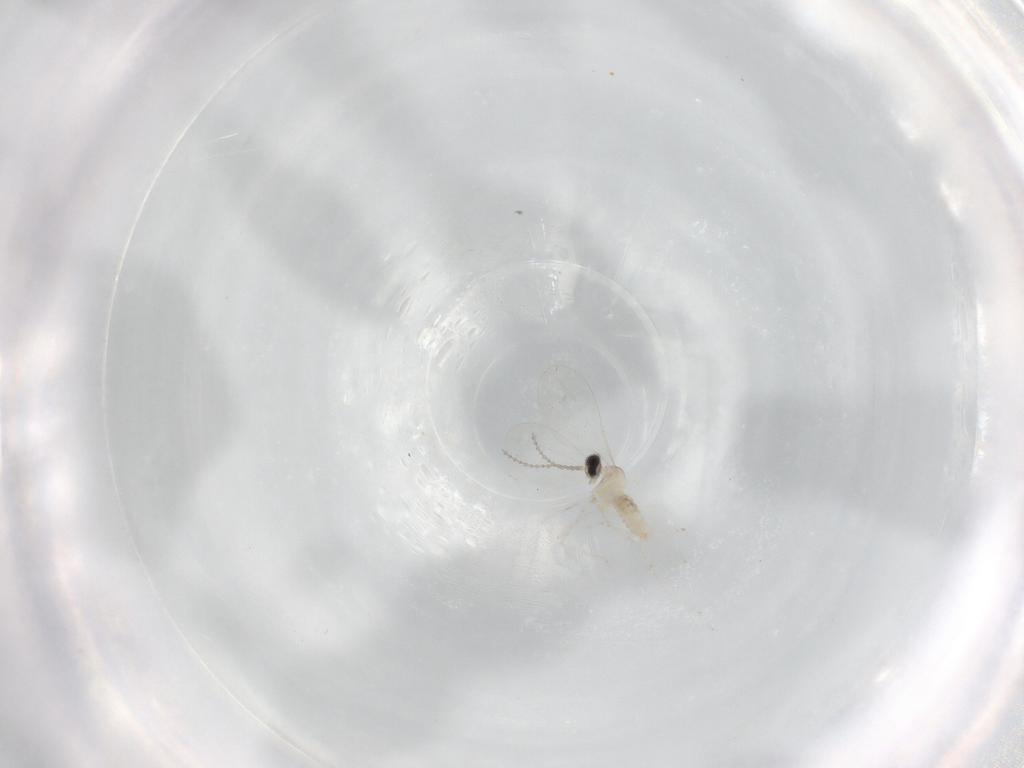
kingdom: Animalia
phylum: Arthropoda
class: Insecta
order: Diptera
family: Cecidomyiidae
